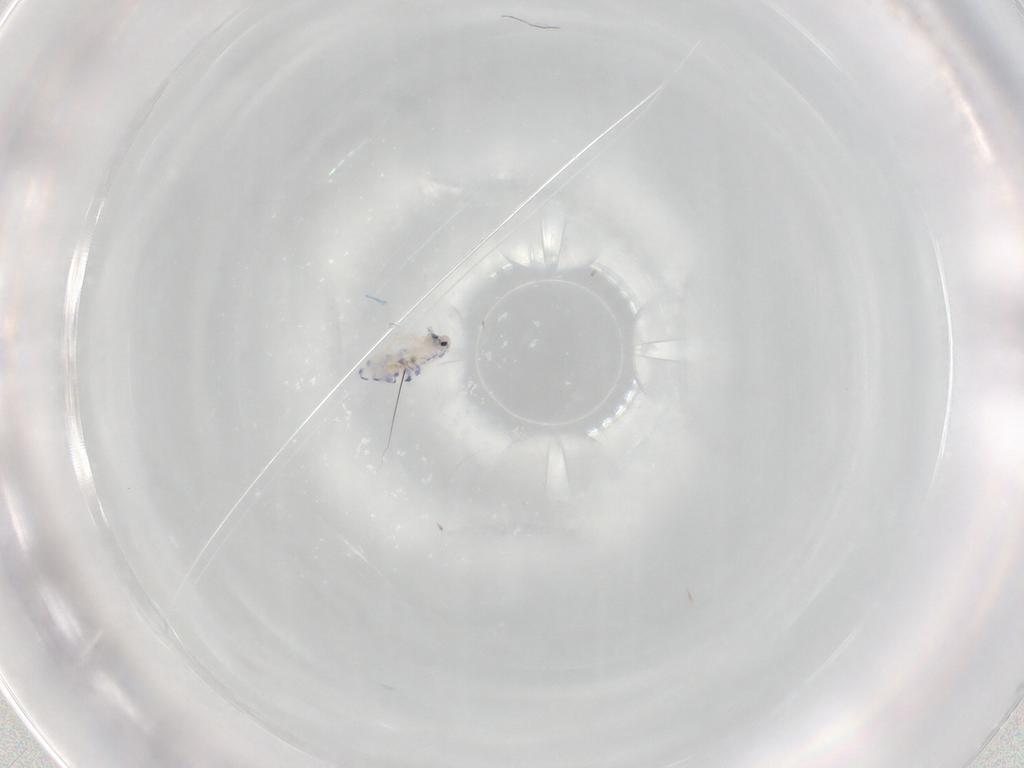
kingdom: Animalia
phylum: Arthropoda
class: Collembola
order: Entomobryomorpha
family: Entomobryidae
